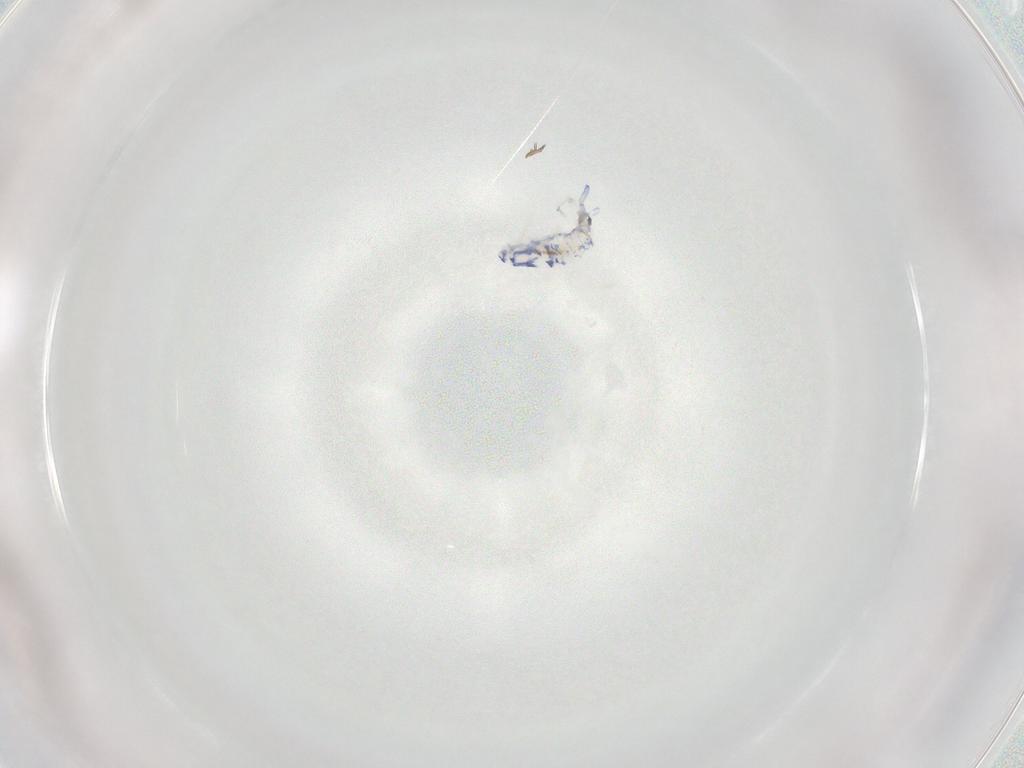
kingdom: Animalia
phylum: Arthropoda
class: Collembola
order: Entomobryomorpha
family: Entomobryidae
